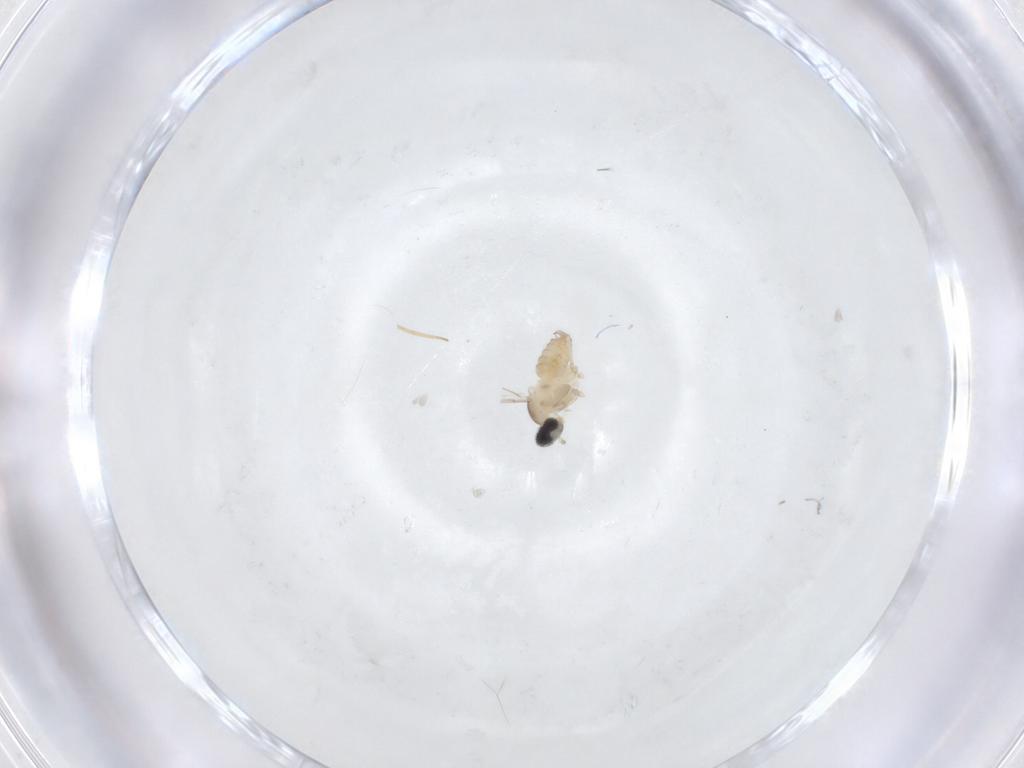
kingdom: Animalia
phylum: Arthropoda
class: Insecta
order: Diptera
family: Cecidomyiidae
